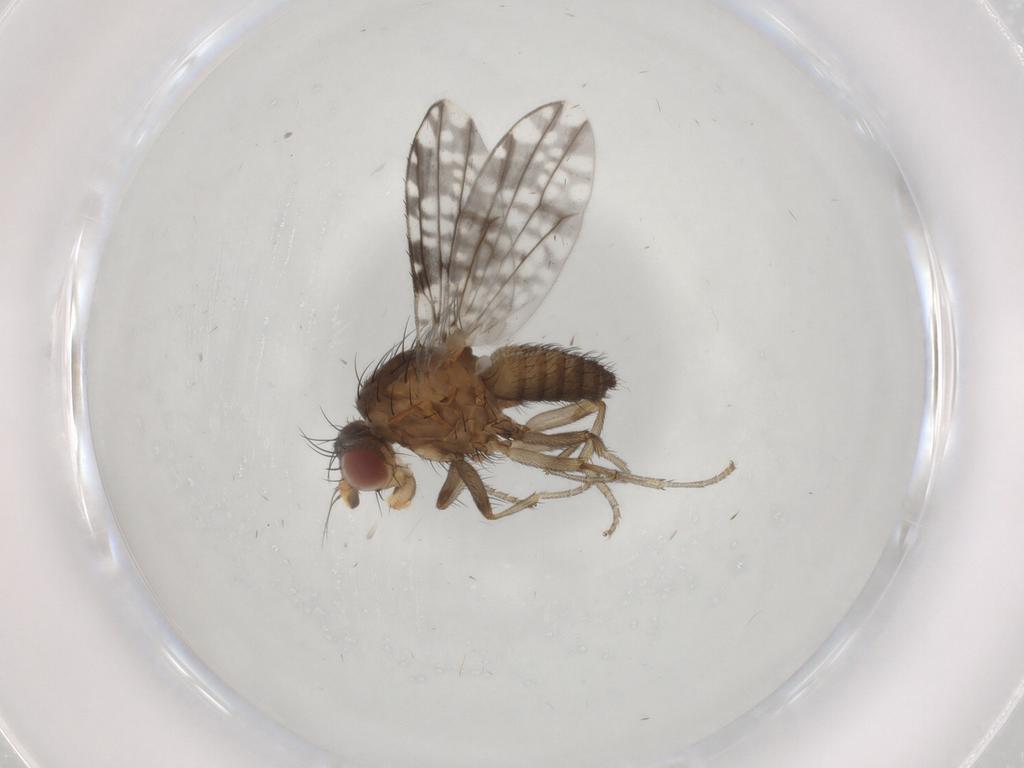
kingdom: Animalia
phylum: Arthropoda
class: Insecta
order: Diptera
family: Tephritidae
